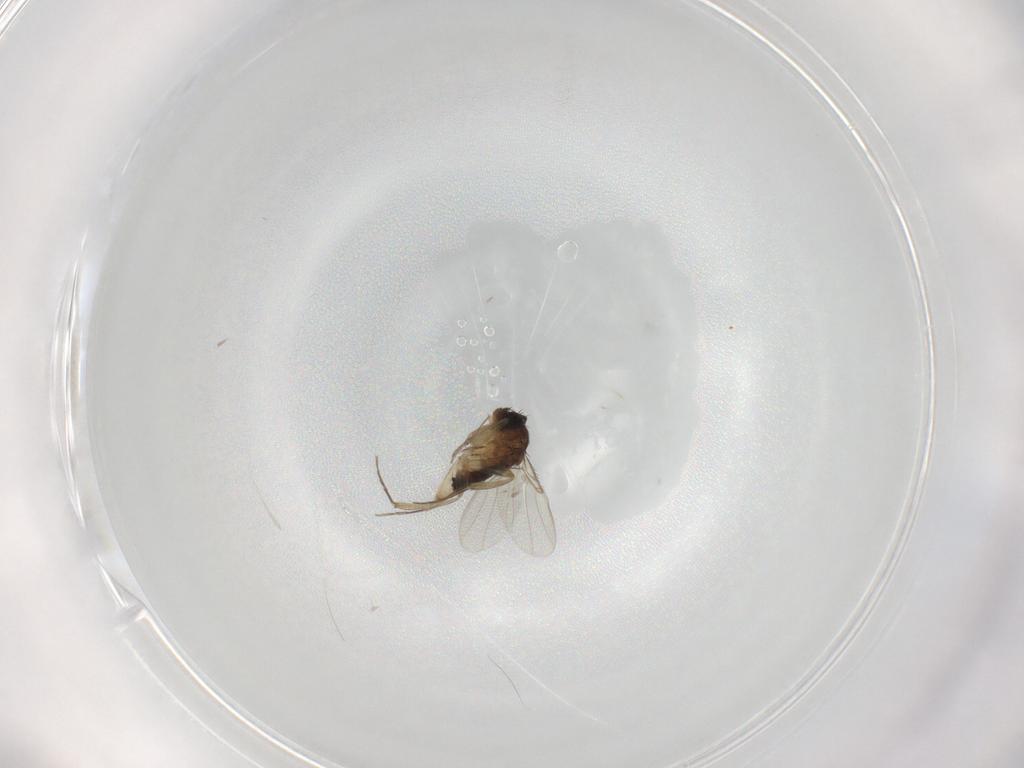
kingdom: Animalia
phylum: Arthropoda
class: Insecta
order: Diptera
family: Phoridae
